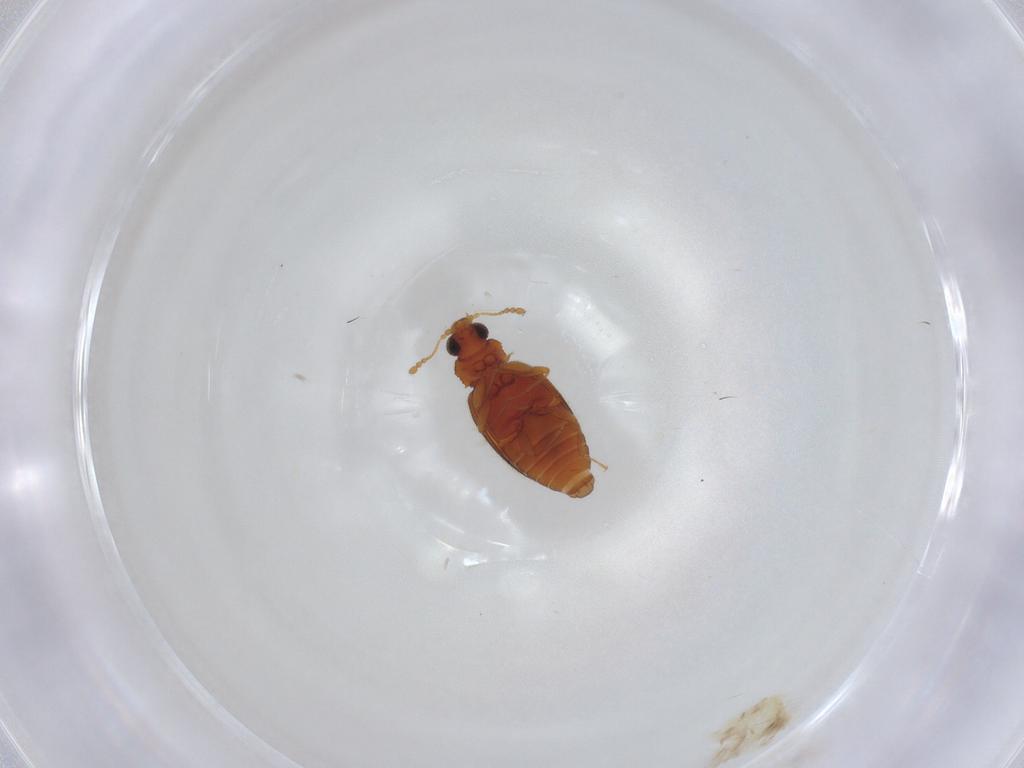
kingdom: Animalia
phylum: Arthropoda
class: Insecta
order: Coleoptera
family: Latridiidae
